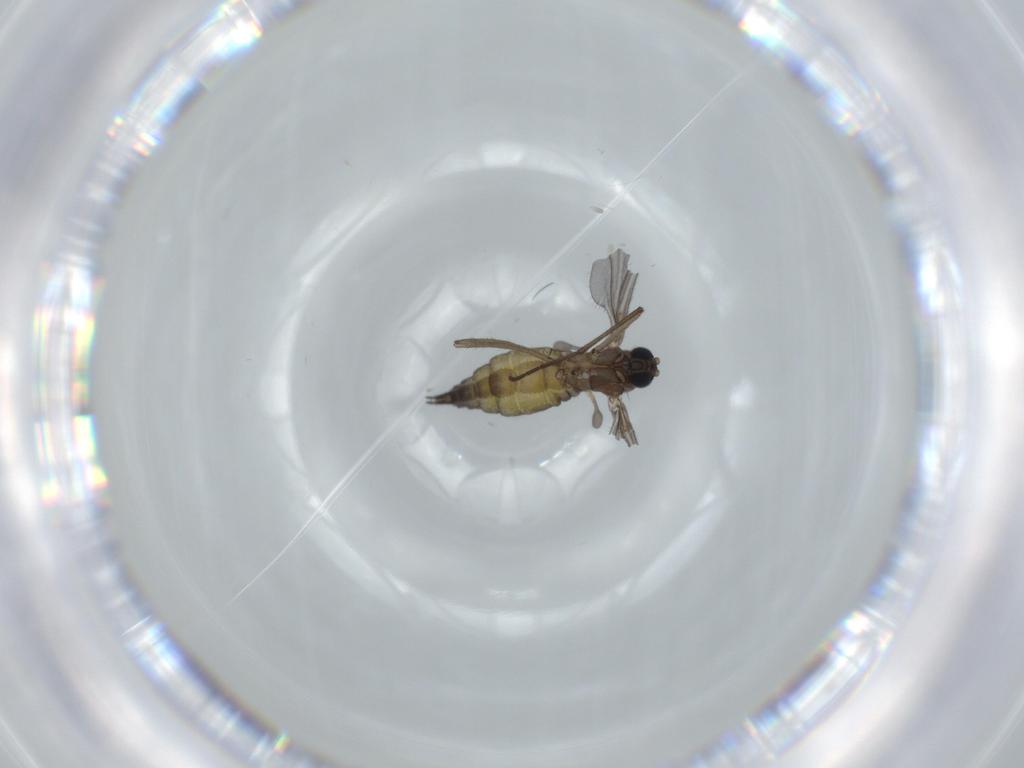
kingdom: Animalia
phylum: Arthropoda
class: Insecta
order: Diptera
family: Sciaridae
